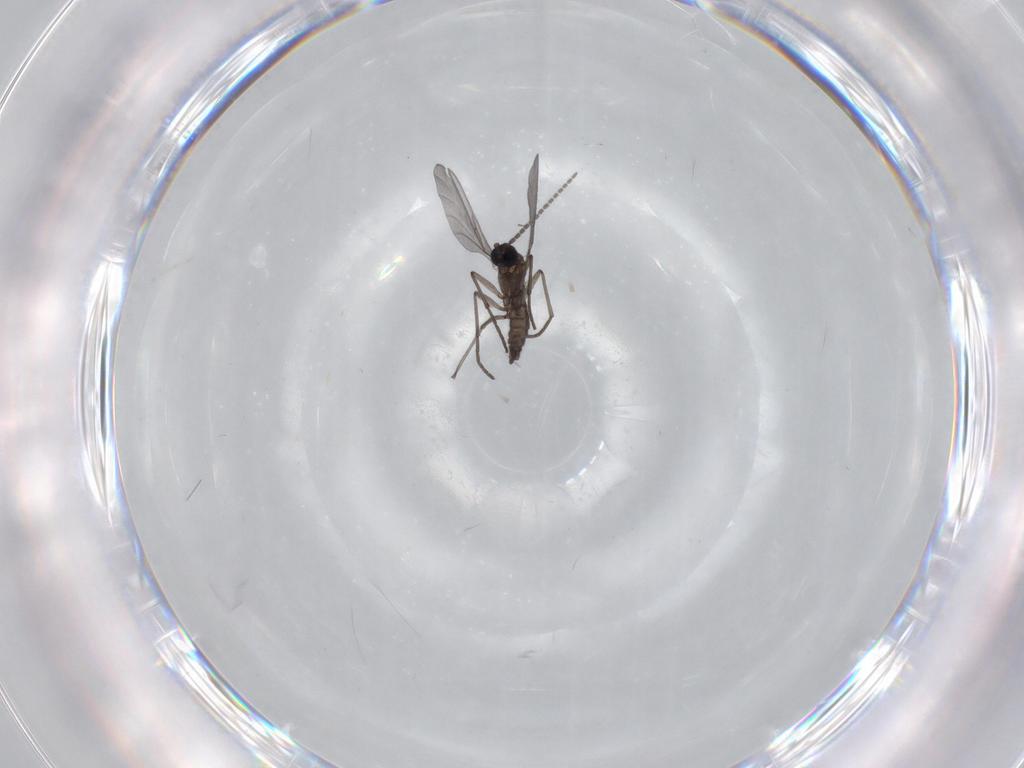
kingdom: Animalia
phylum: Arthropoda
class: Insecta
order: Diptera
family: Sciaridae
